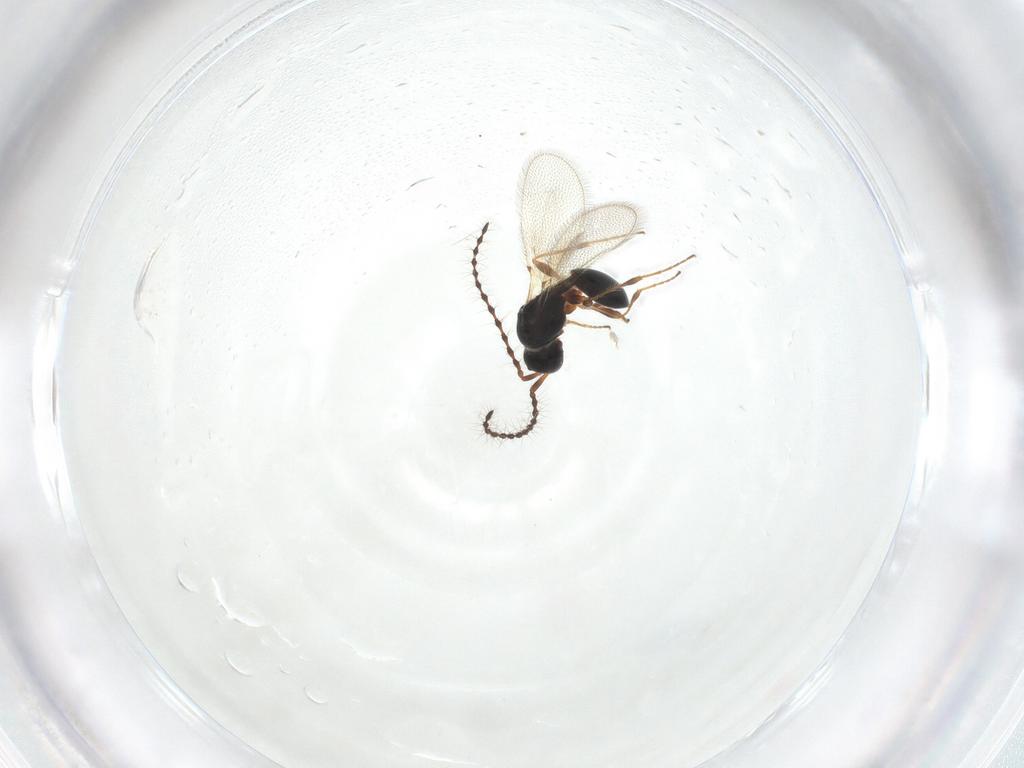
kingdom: Animalia
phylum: Arthropoda
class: Insecta
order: Hymenoptera
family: Diapriidae
